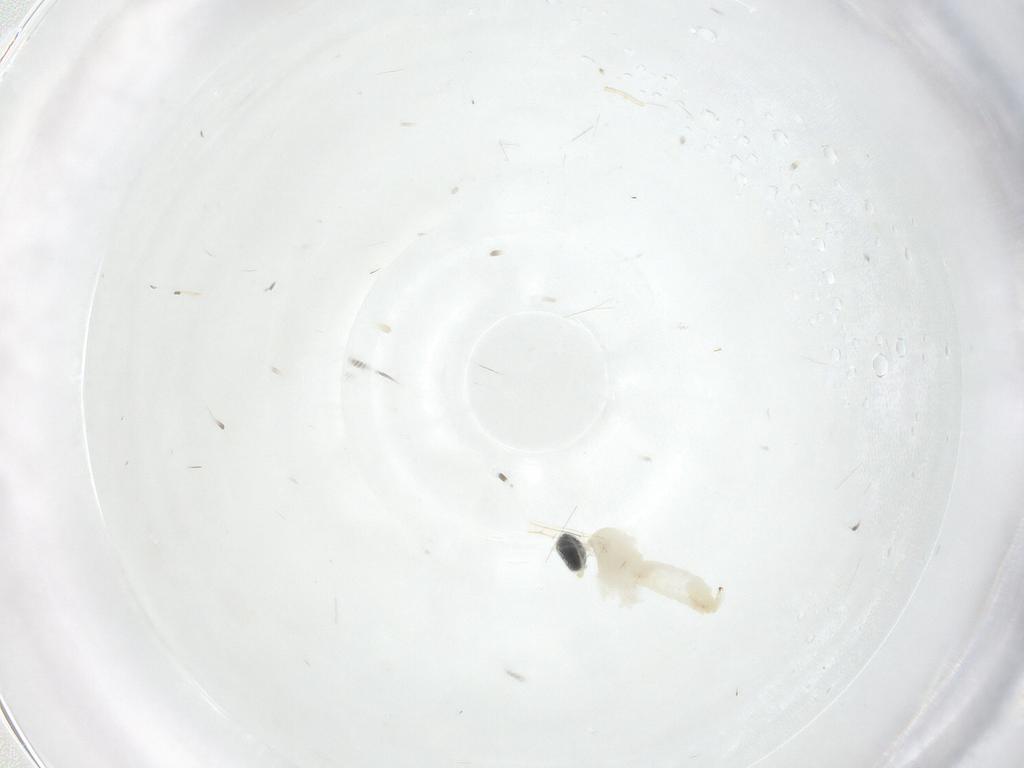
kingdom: Animalia
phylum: Arthropoda
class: Insecta
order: Diptera
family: Cecidomyiidae
